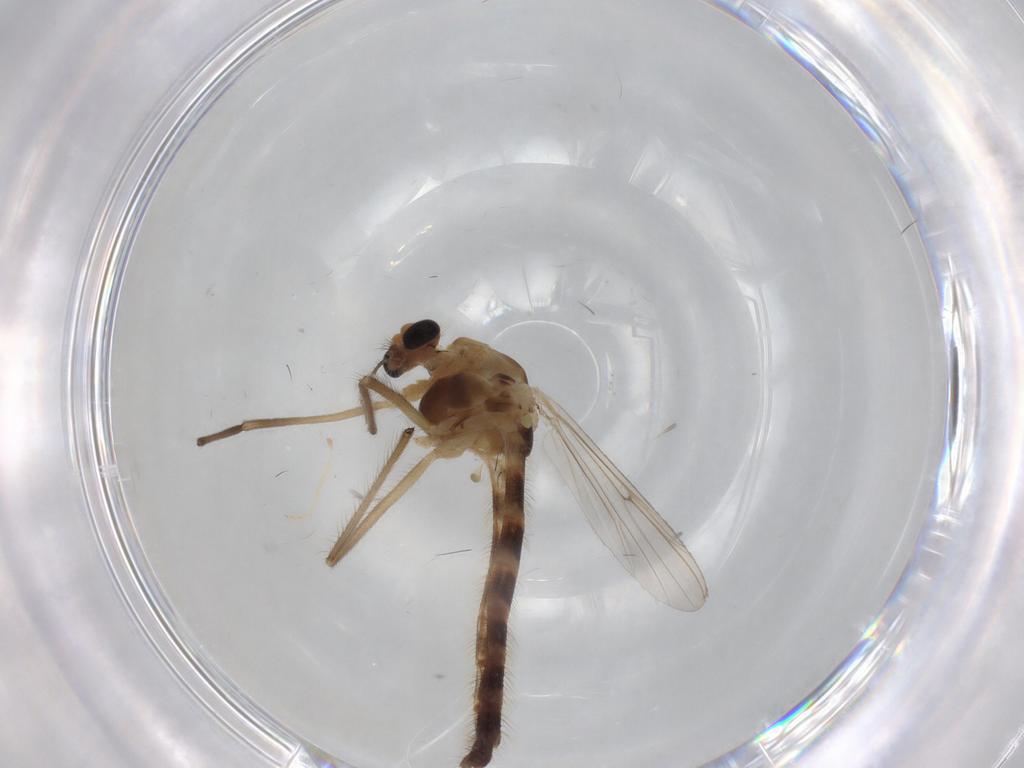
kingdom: Animalia
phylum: Arthropoda
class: Insecta
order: Diptera
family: Chironomidae
